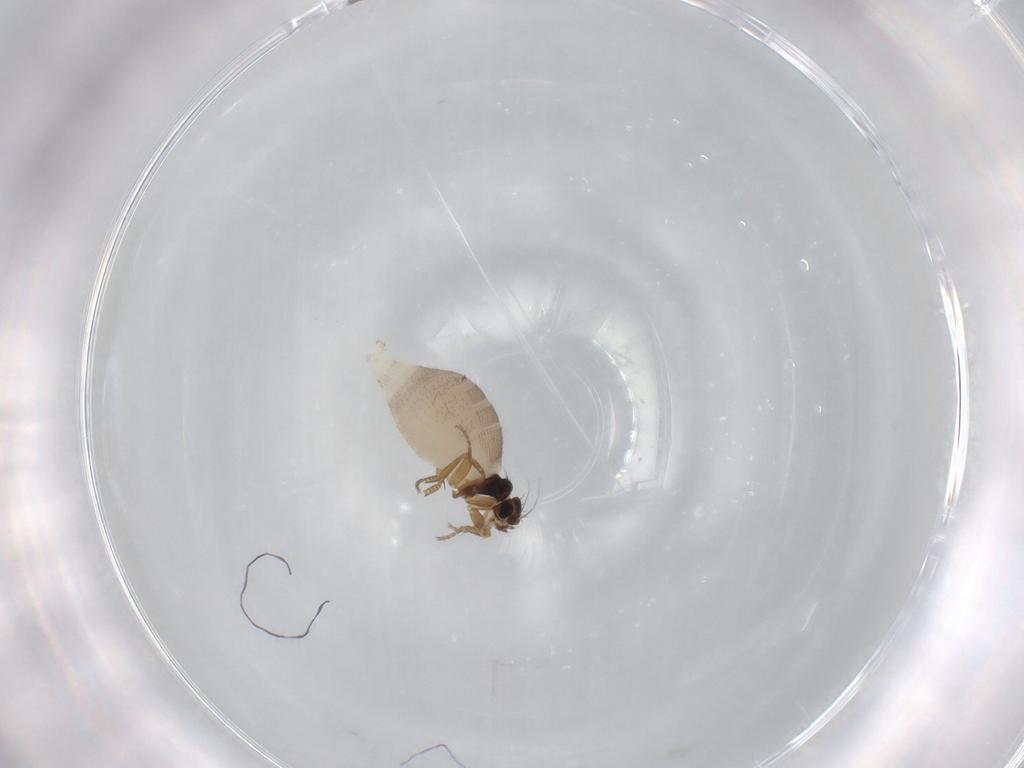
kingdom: Animalia
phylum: Arthropoda
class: Insecta
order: Diptera
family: Phoridae
